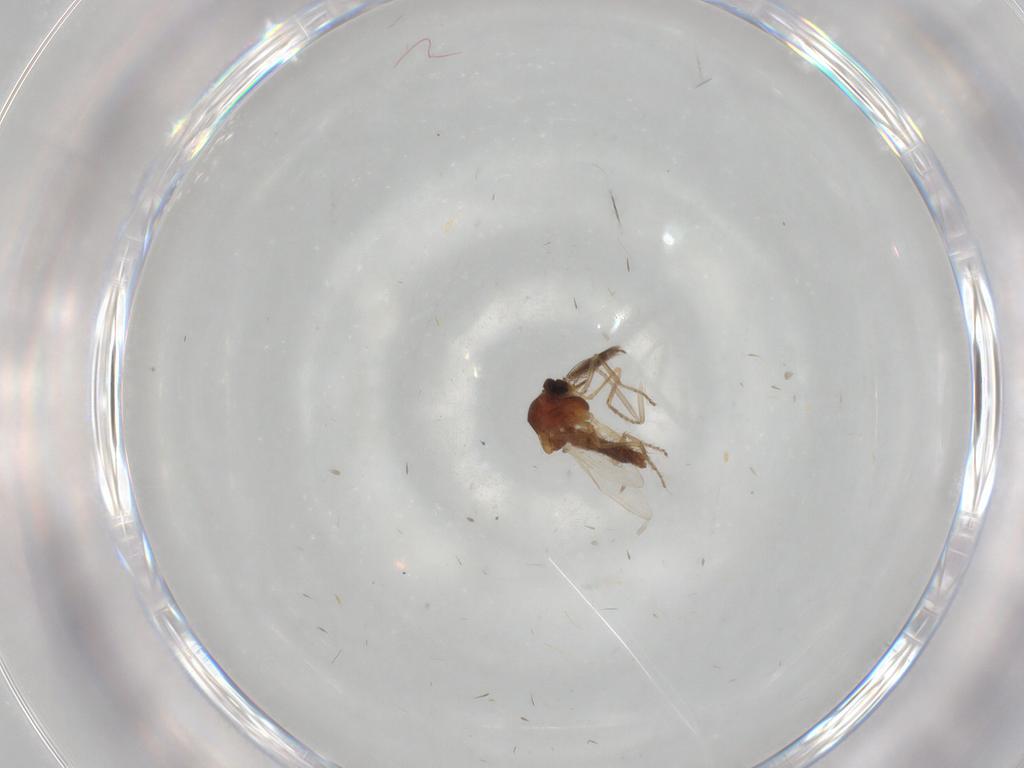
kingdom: Animalia
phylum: Arthropoda
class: Insecta
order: Diptera
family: Ceratopogonidae
